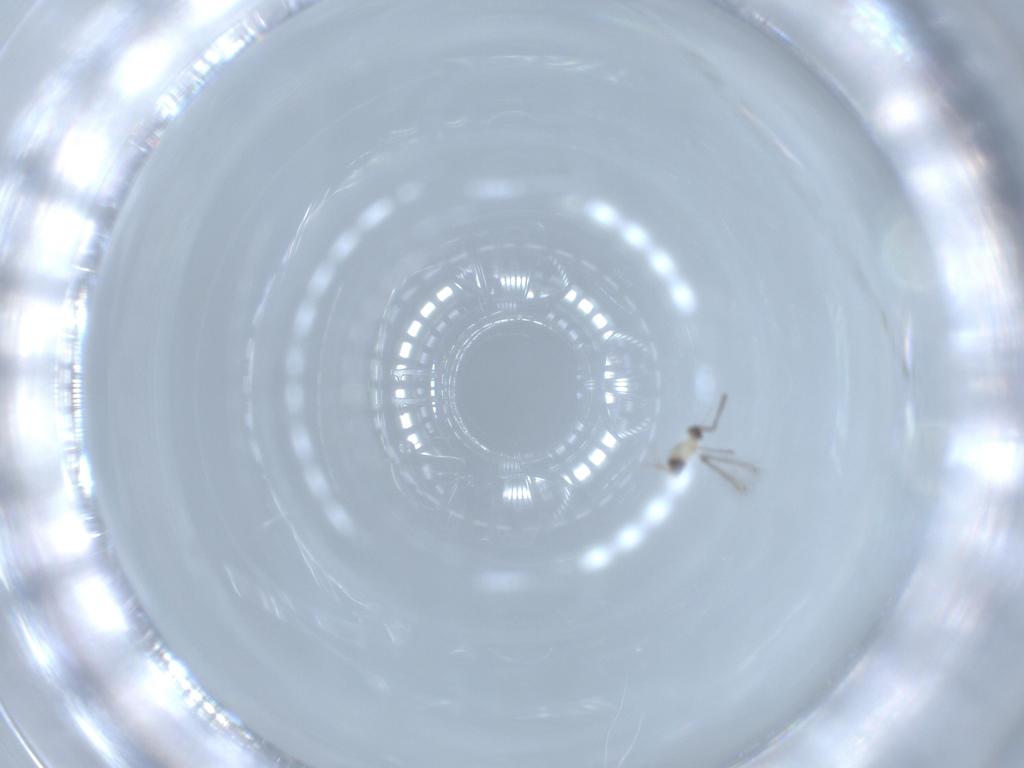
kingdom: Animalia
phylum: Arthropoda
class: Insecta
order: Hymenoptera
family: Mymaridae
